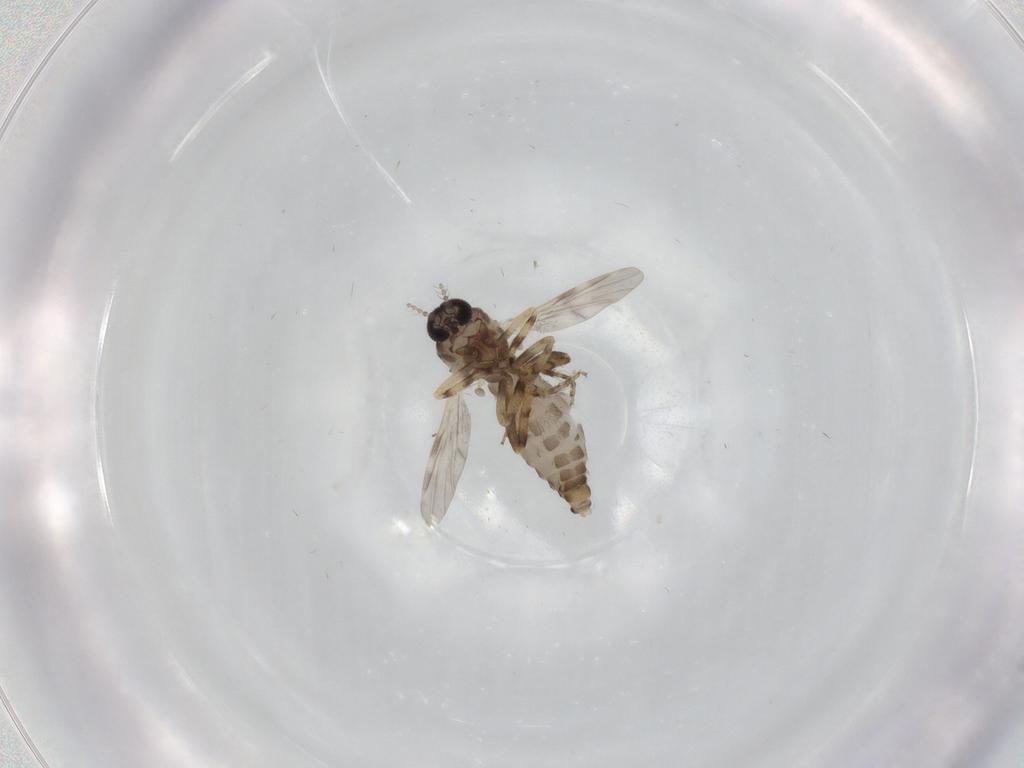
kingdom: Animalia
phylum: Arthropoda
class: Insecta
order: Diptera
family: Ceratopogonidae
